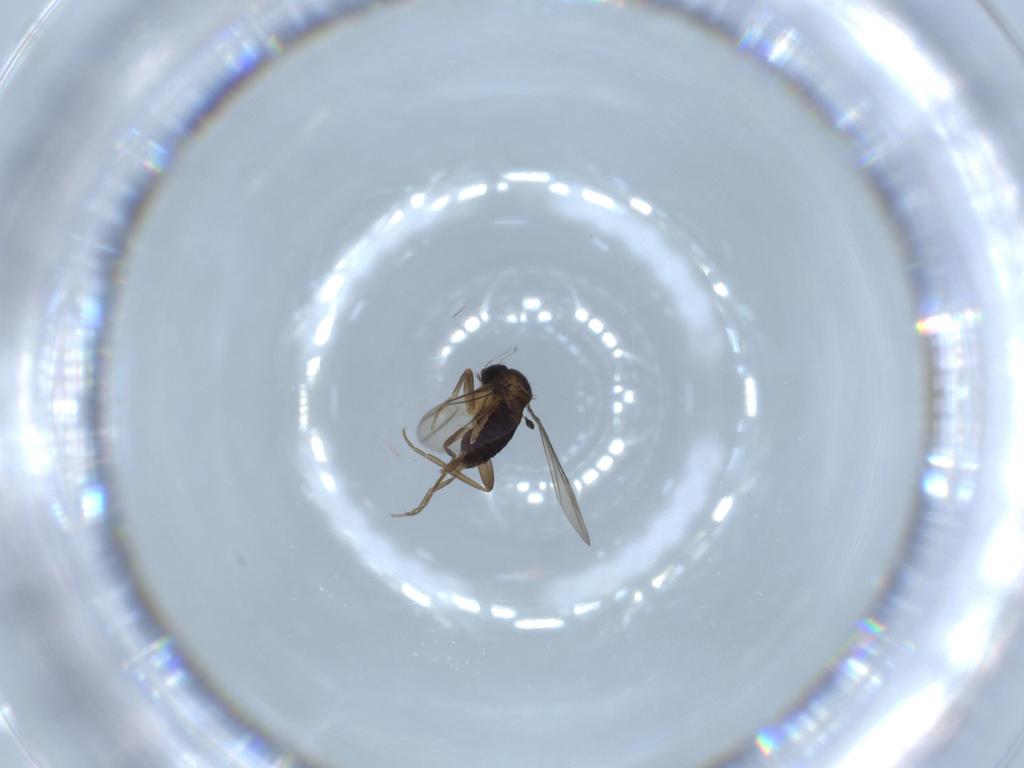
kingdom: Animalia
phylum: Arthropoda
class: Insecta
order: Diptera
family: Phoridae
